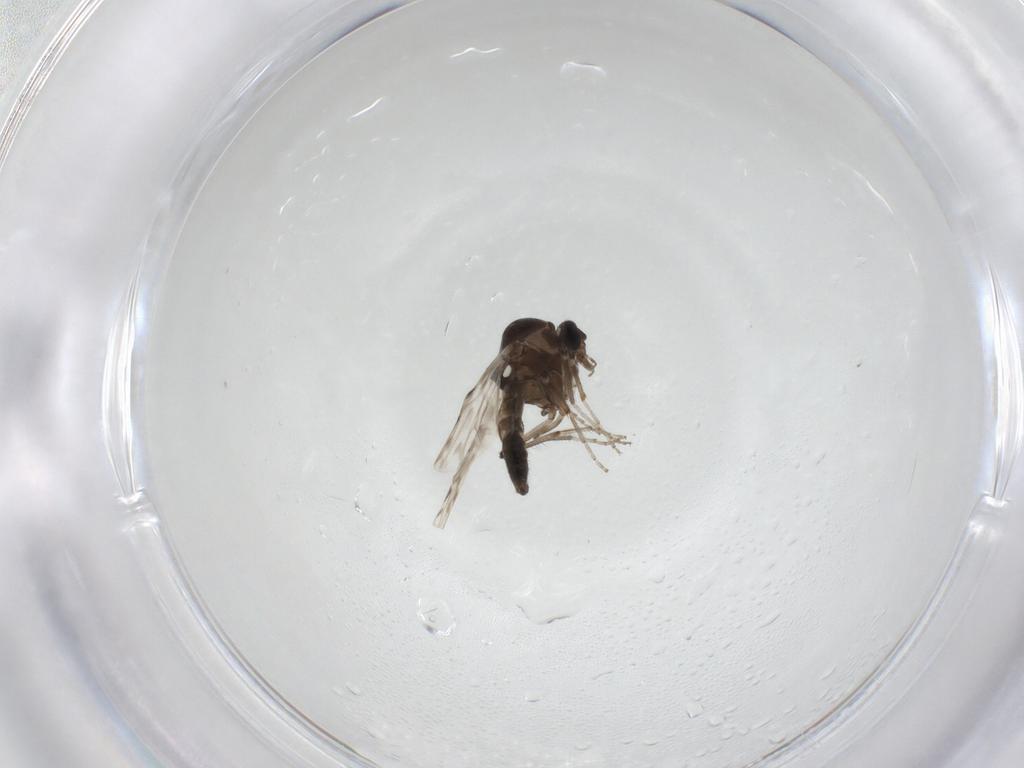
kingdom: Animalia
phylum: Arthropoda
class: Insecta
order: Diptera
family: Ceratopogonidae
